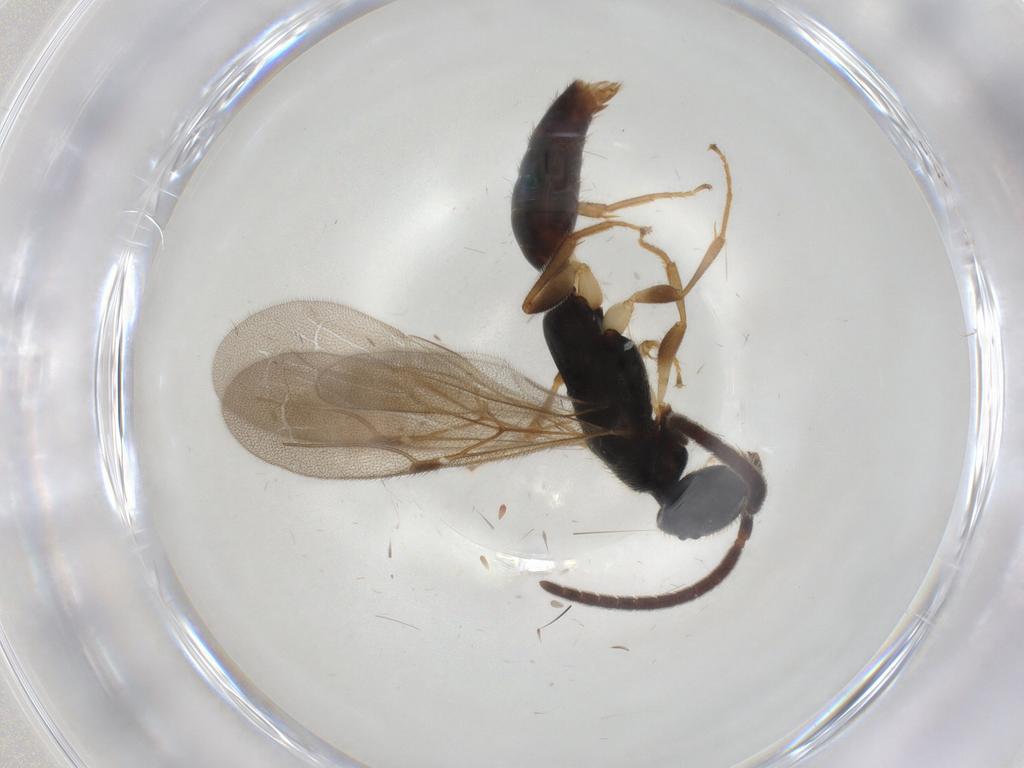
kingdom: Animalia
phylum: Arthropoda
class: Insecta
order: Hymenoptera
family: Bethylidae
